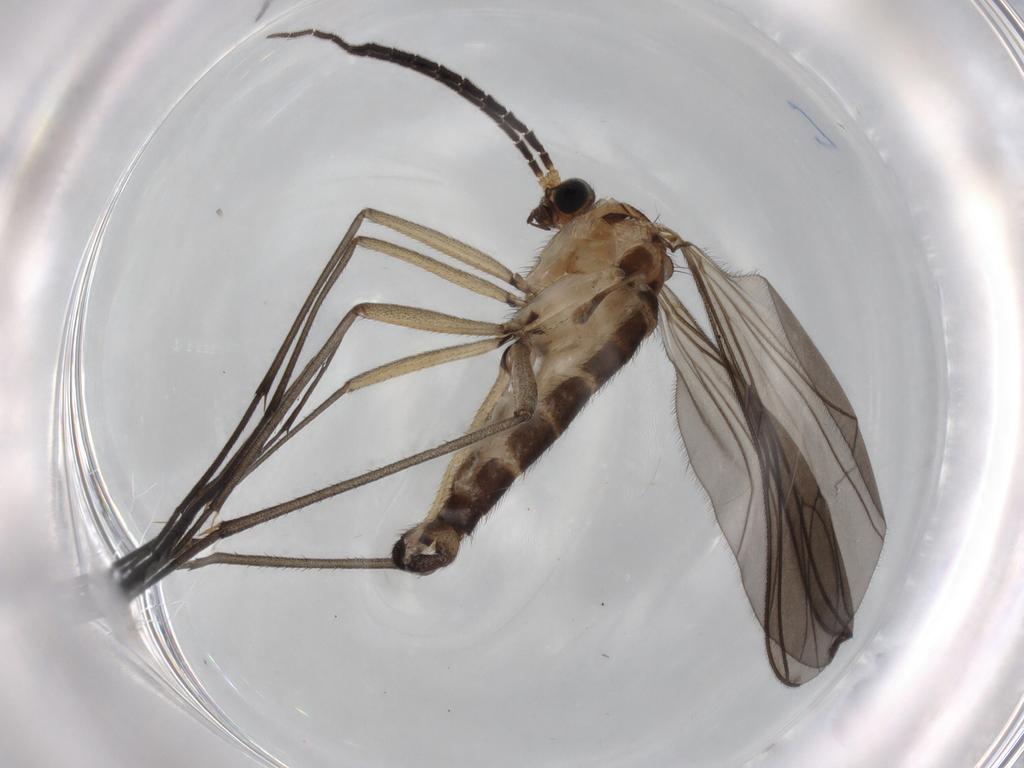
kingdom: Animalia
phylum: Arthropoda
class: Insecta
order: Diptera
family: Sciaridae
